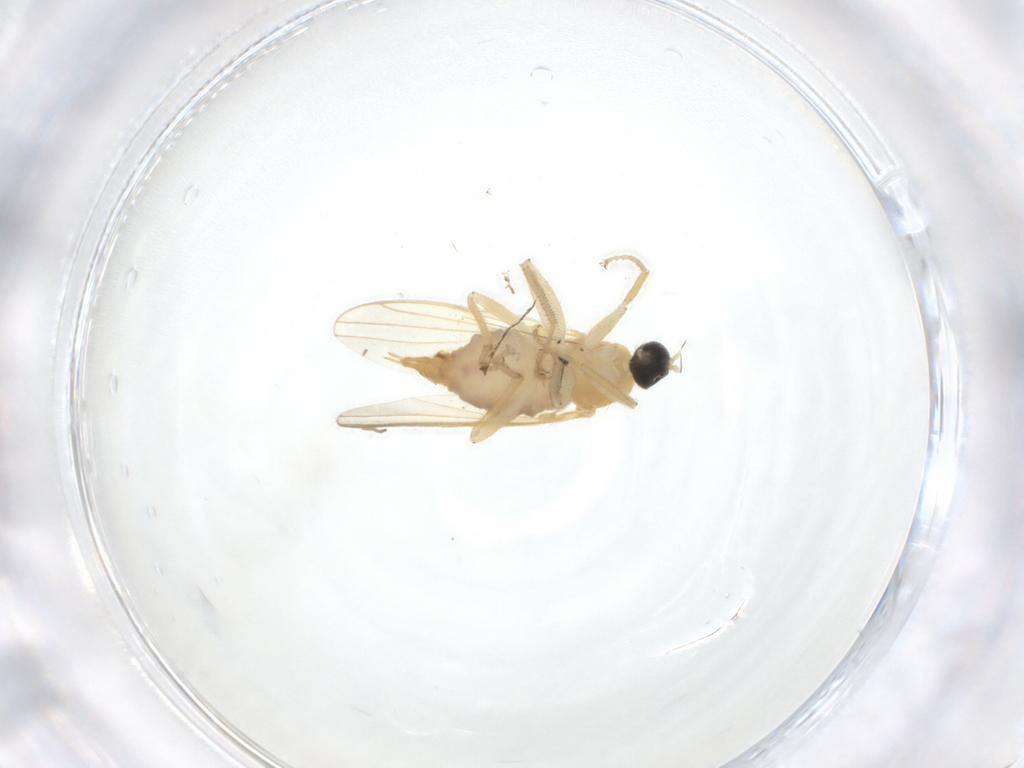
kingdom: Animalia
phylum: Arthropoda
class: Insecta
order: Diptera
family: Hybotidae
